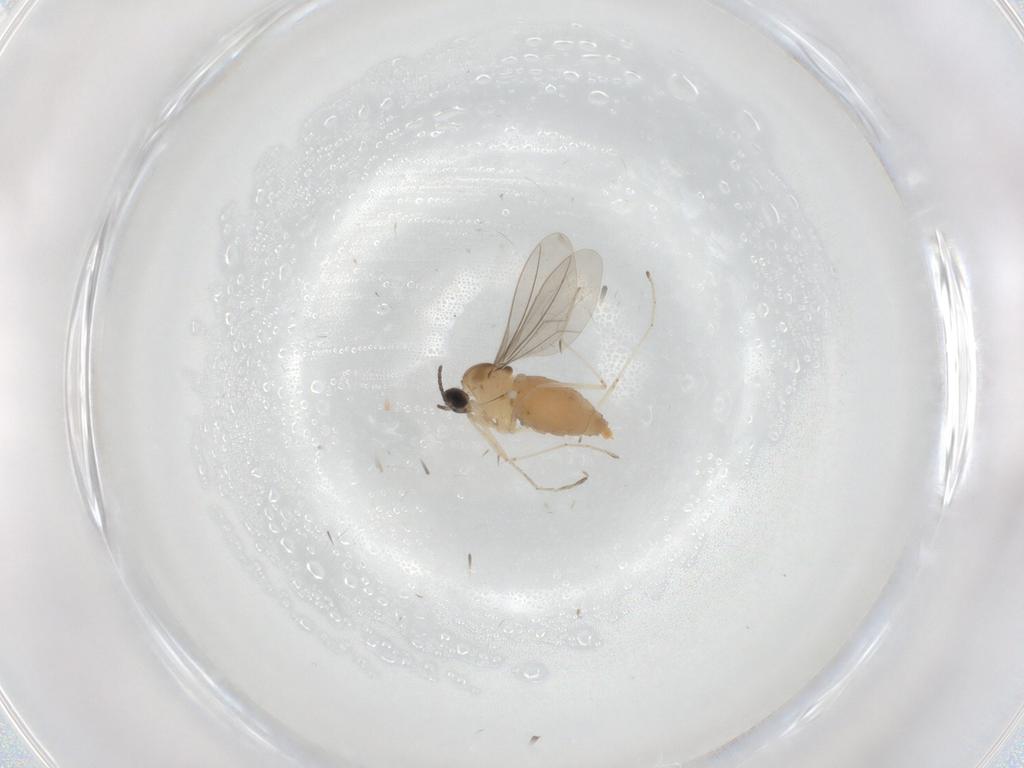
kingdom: Animalia
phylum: Arthropoda
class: Insecta
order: Diptera
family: Cecidomyiidae
